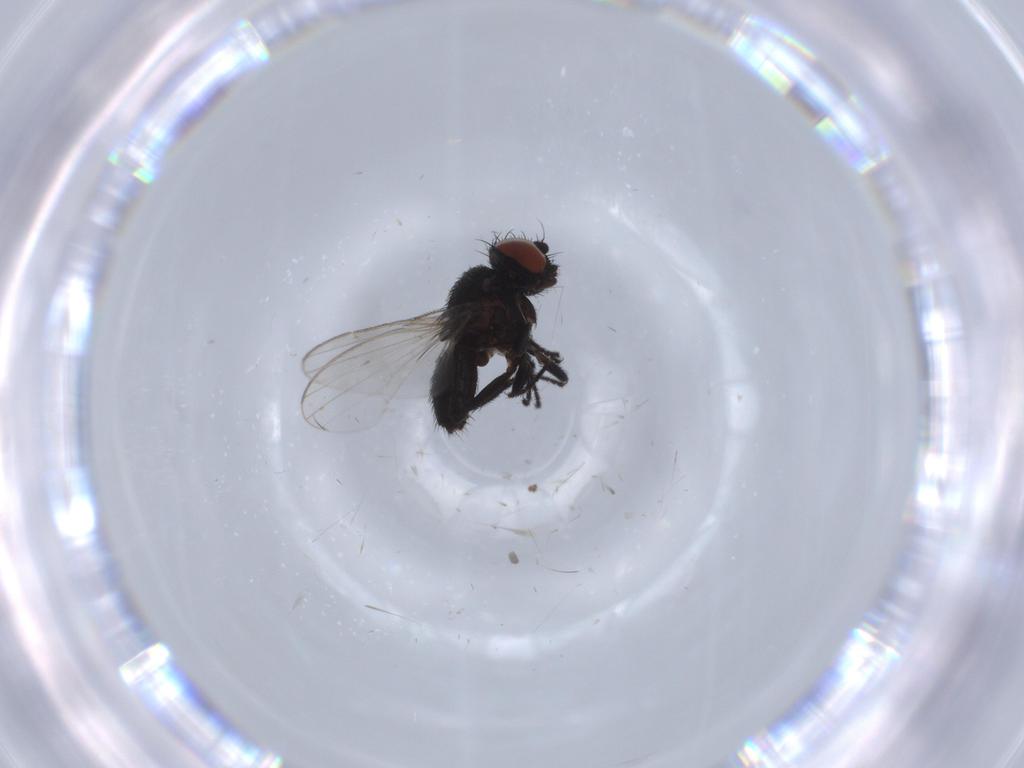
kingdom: Animalia
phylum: Arthropoda
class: Insecta
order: Diptera
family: Milichiidae
